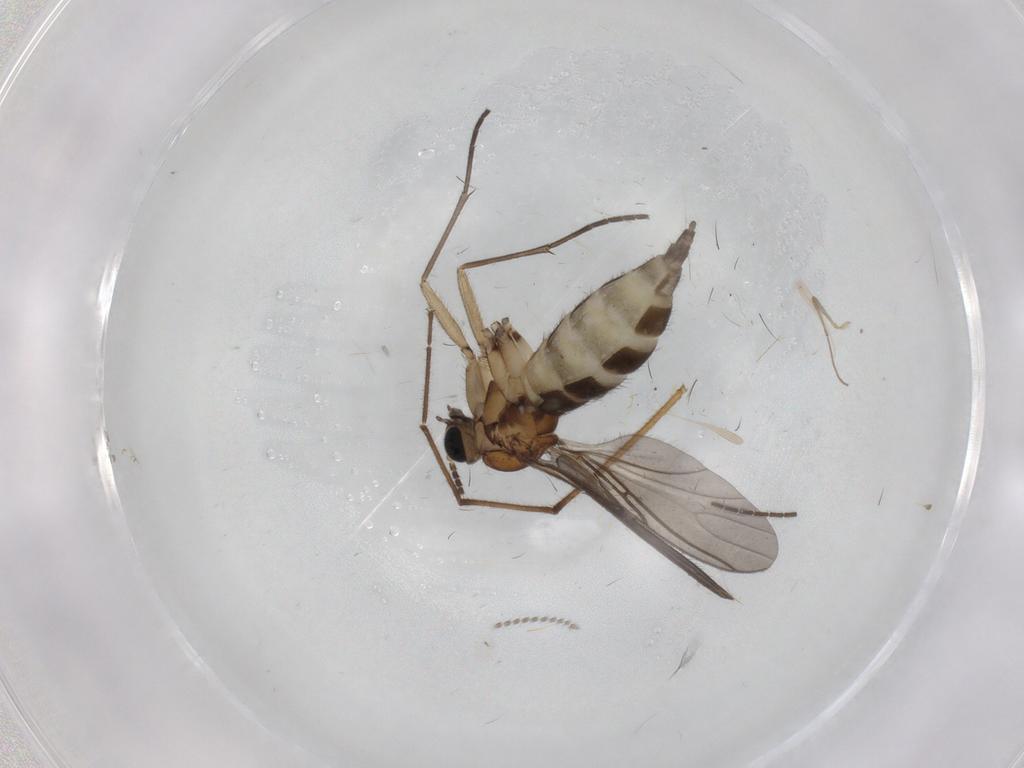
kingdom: Animalia
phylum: Arthropoda
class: Insecta
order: Diptera
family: Sciaridae
